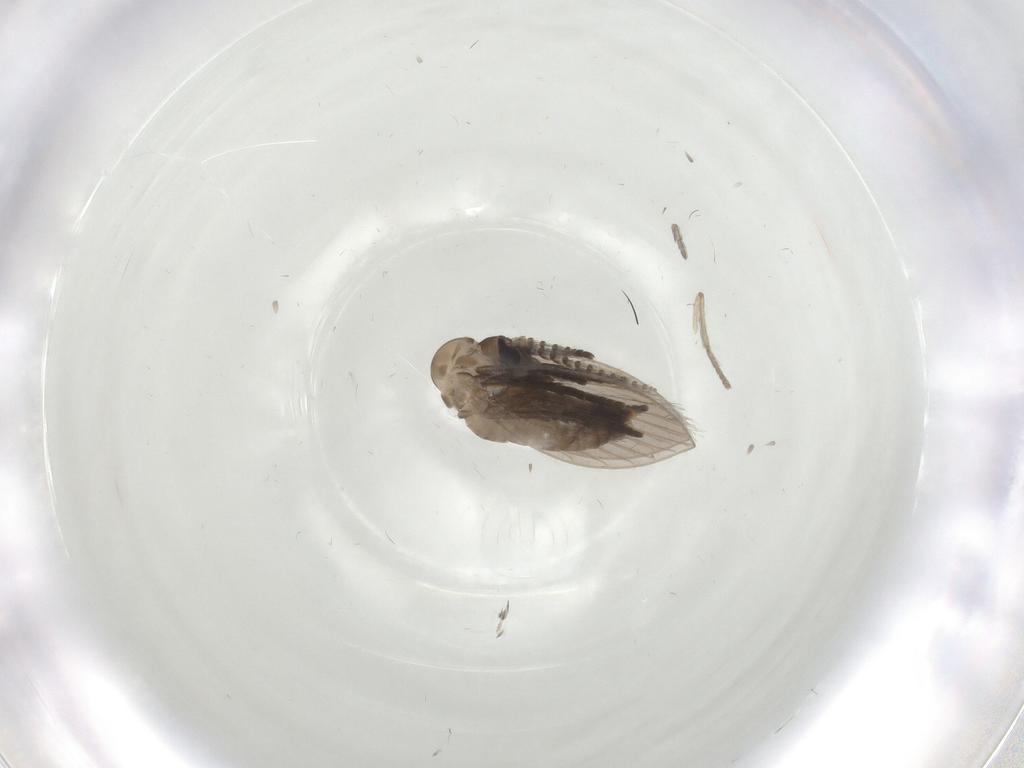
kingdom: Animalia
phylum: Arthropoda
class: Insecta
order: Diptera
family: Psychodidae
